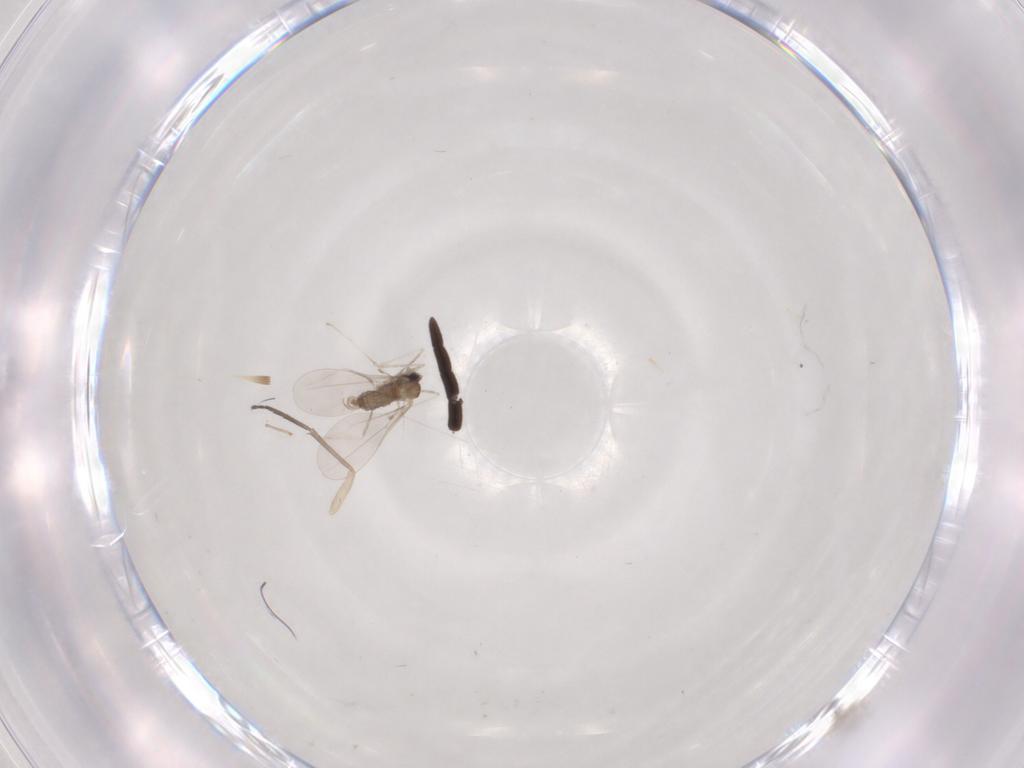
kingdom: Animalia
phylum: Arthropoda
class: Insecta
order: Diptera
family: Cecidomyiidae
